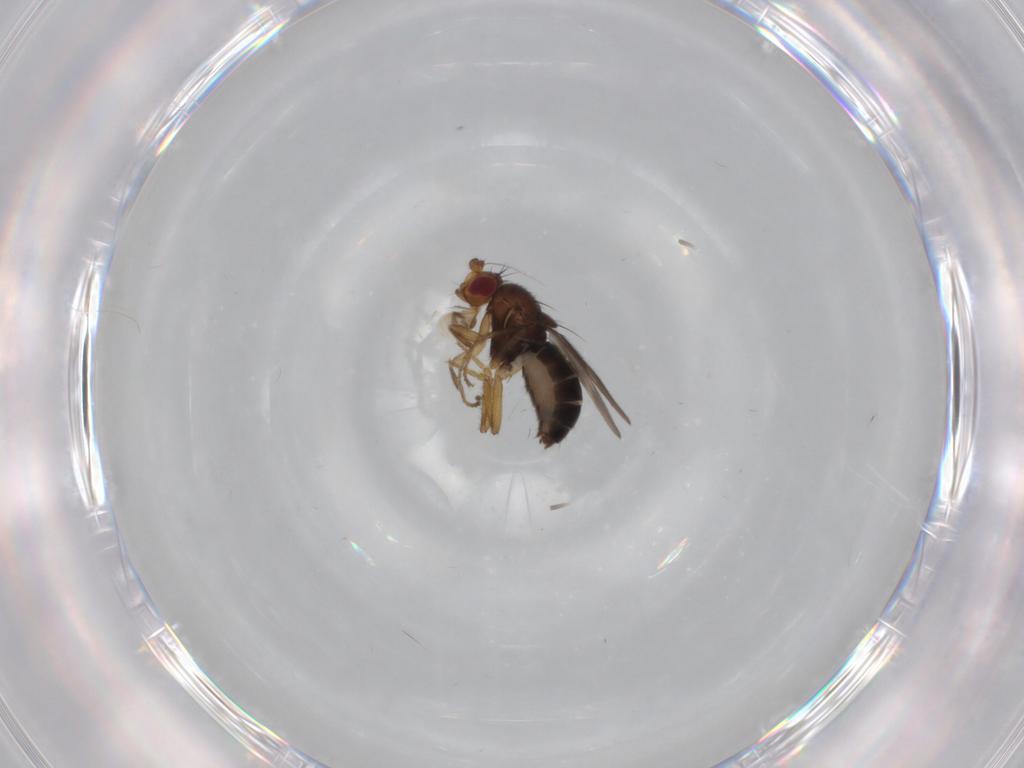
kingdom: Animalia
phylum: Arthropoda
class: Insecta
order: Diptera
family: Sphaeroceridae
